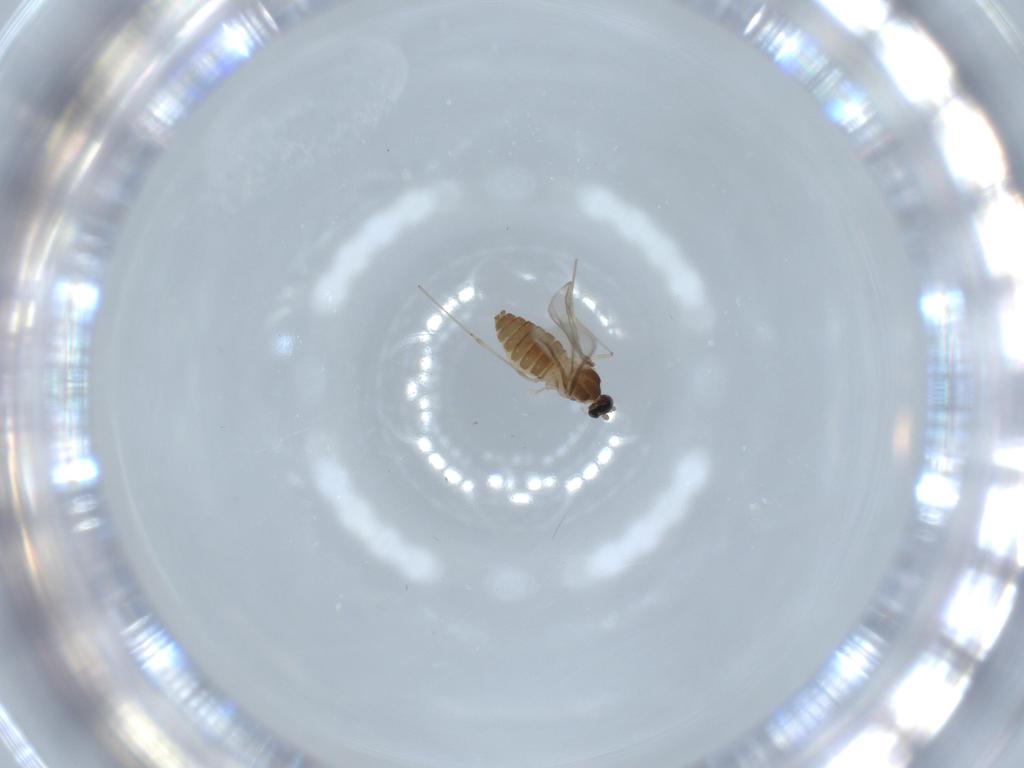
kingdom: Animalia
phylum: Arthropoda
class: Insecta
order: Diptera
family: Cecidomyiidae
